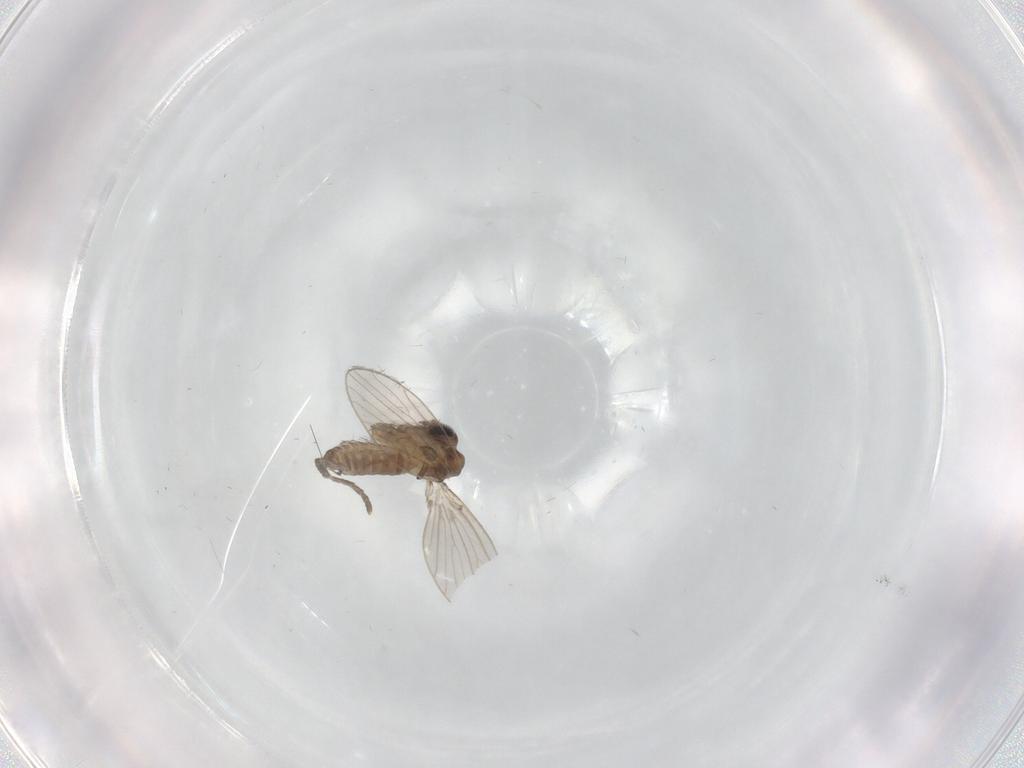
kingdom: Animalia
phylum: Arthropoda
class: Insecta
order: Diptera
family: Psychodidae
